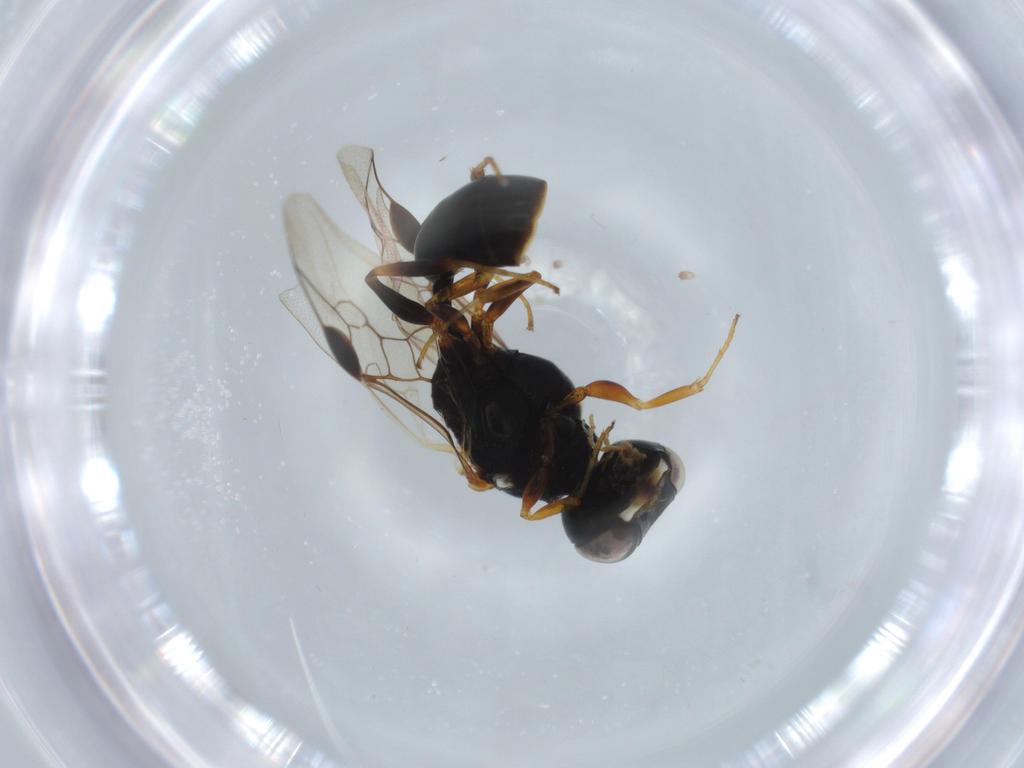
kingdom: Animalia
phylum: Arthropoda
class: Insecta
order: Hymenoptera
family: Crabronidae
